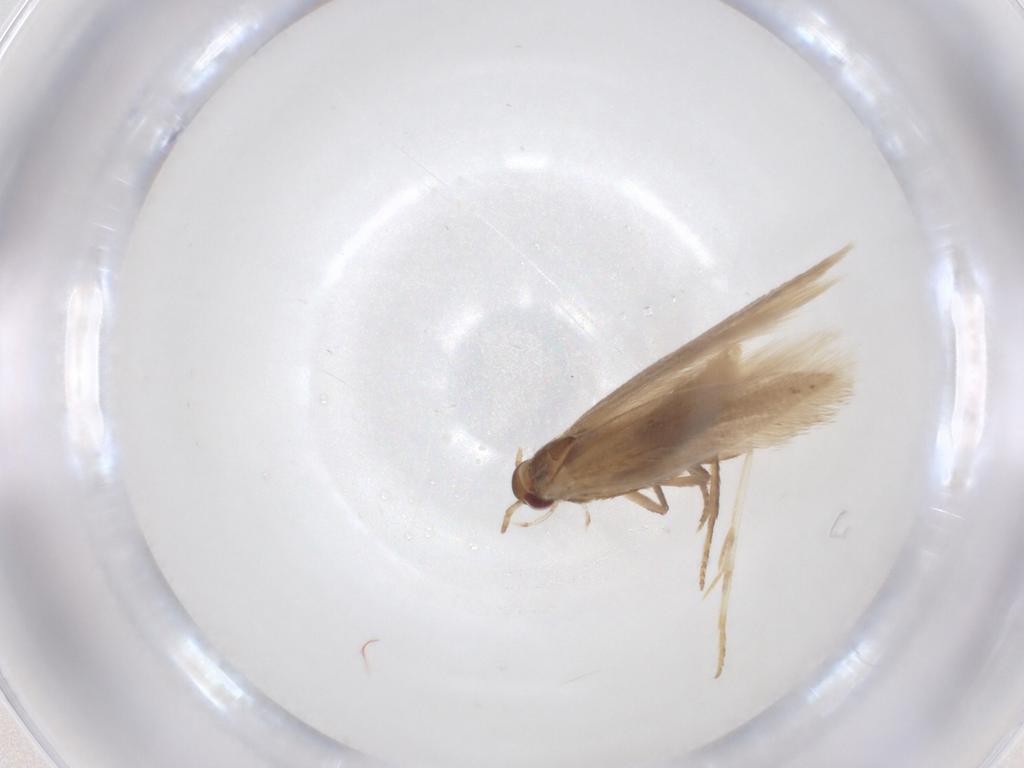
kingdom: Animalia
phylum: Arthropoda
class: Insecta
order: Lepidoptera
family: Crambidae
